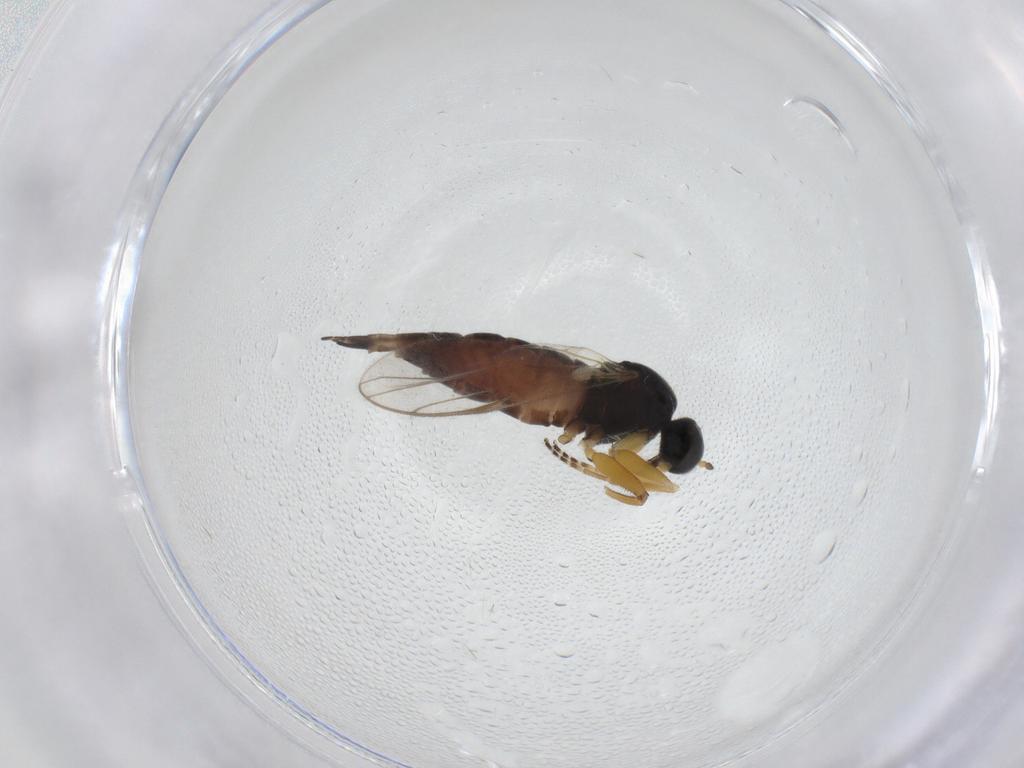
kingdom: Animalia
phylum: Arthropoda
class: Insecta
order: Diptera
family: Hybotidae
